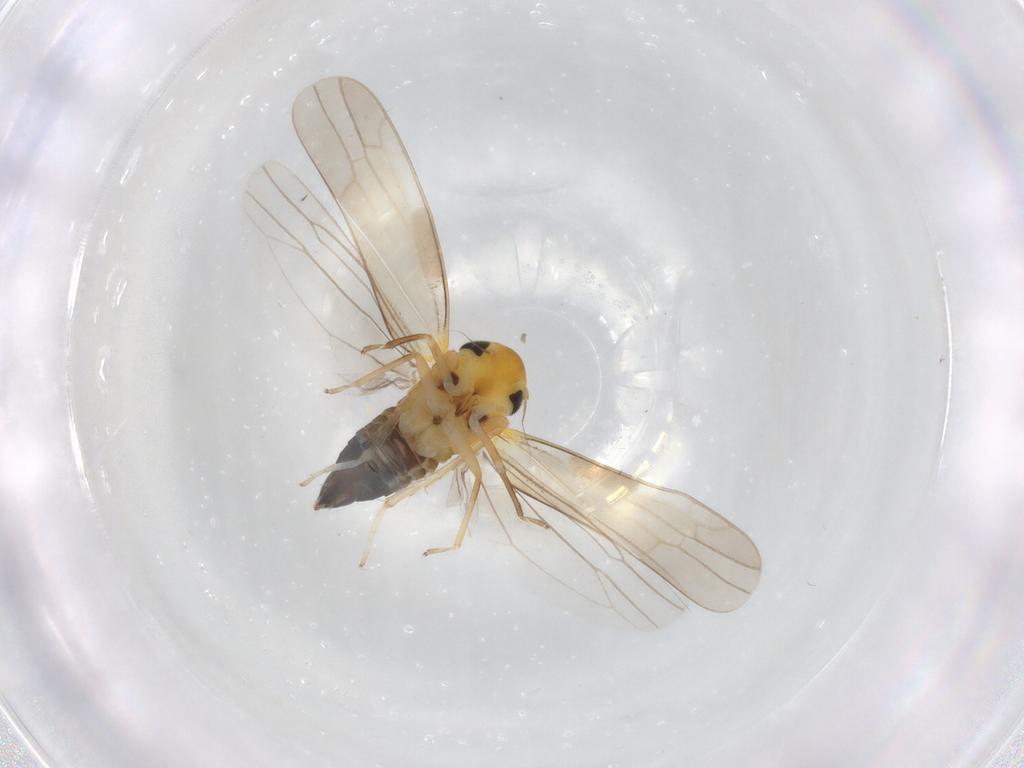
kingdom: Animalia
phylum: Arthropoda
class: Insecta
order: Hemiptera
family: Cicadellidae
